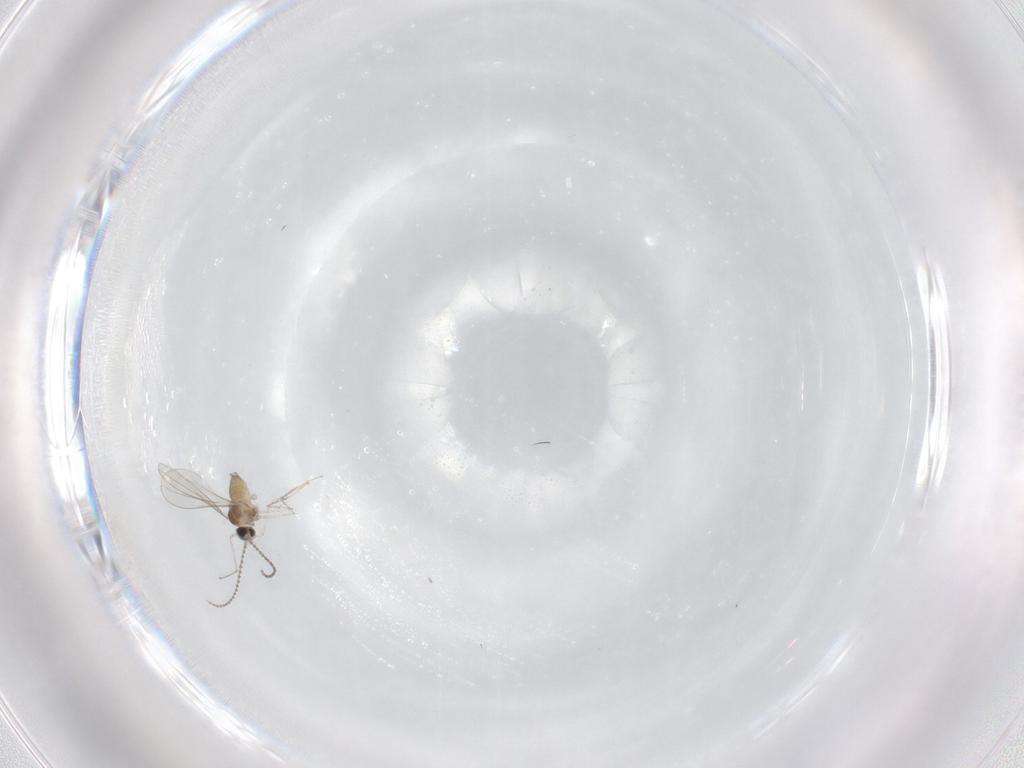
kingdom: Animalia
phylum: Arthropoda
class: Insecta
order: Diptera
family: Cecidomyiidae
